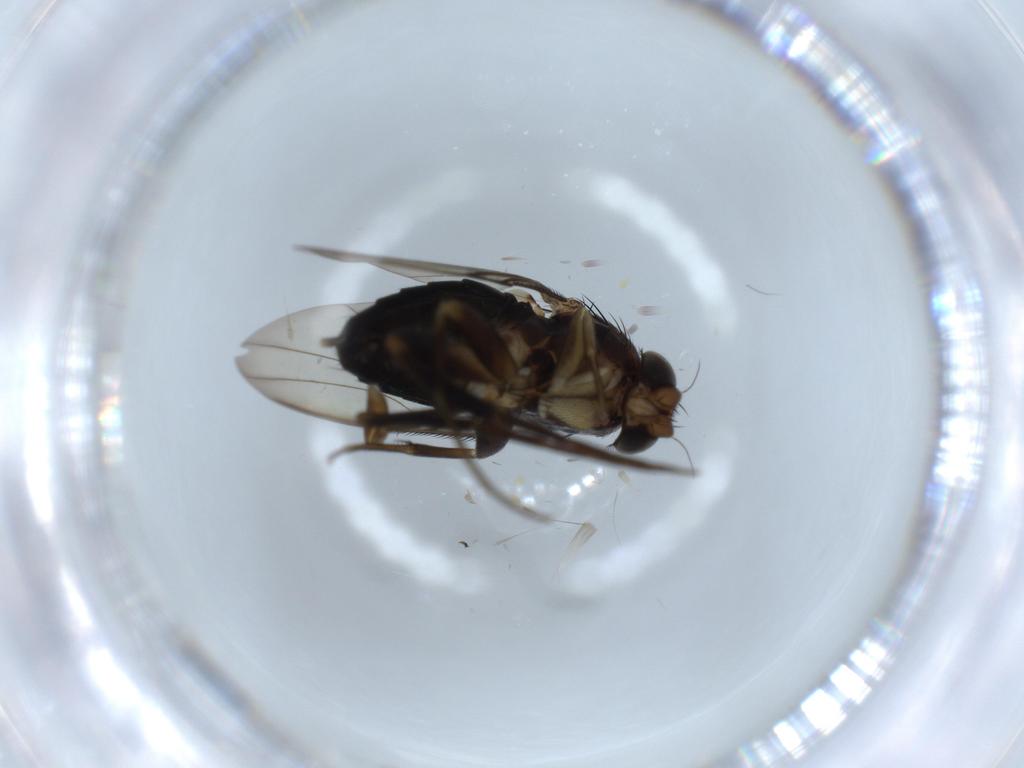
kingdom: Animalia
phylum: Arthropoda
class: Insecta
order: Diptera
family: Phoridae
